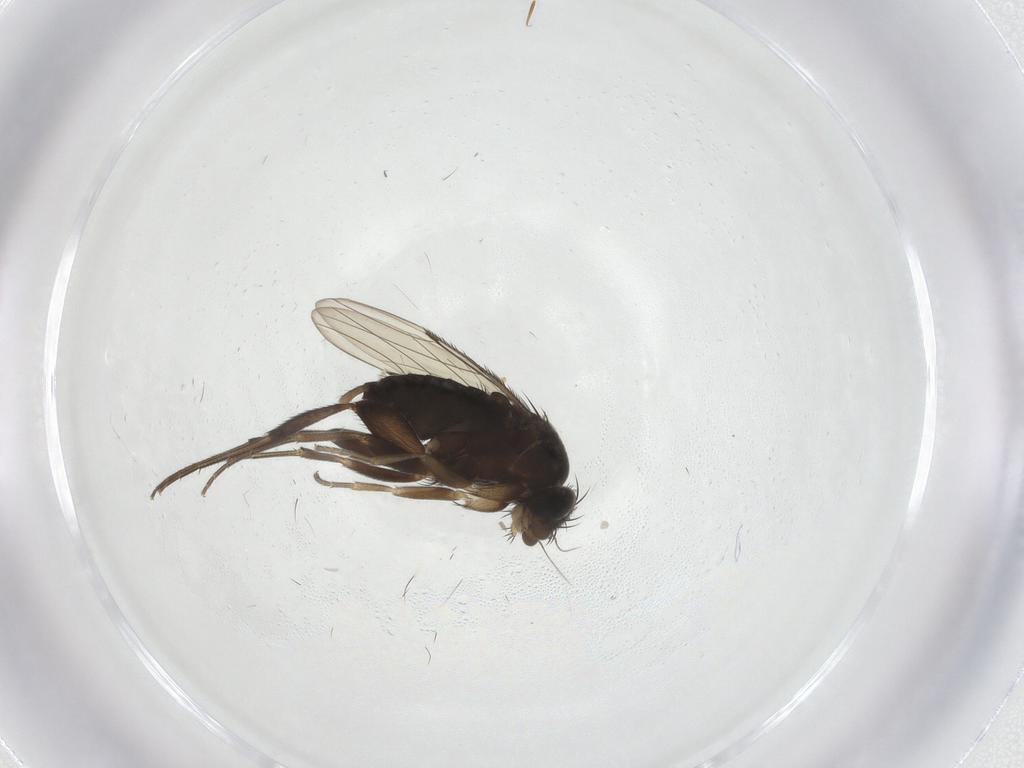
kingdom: Animalia
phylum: Arthropoda
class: Insecta
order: Diptera
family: Phoridae
